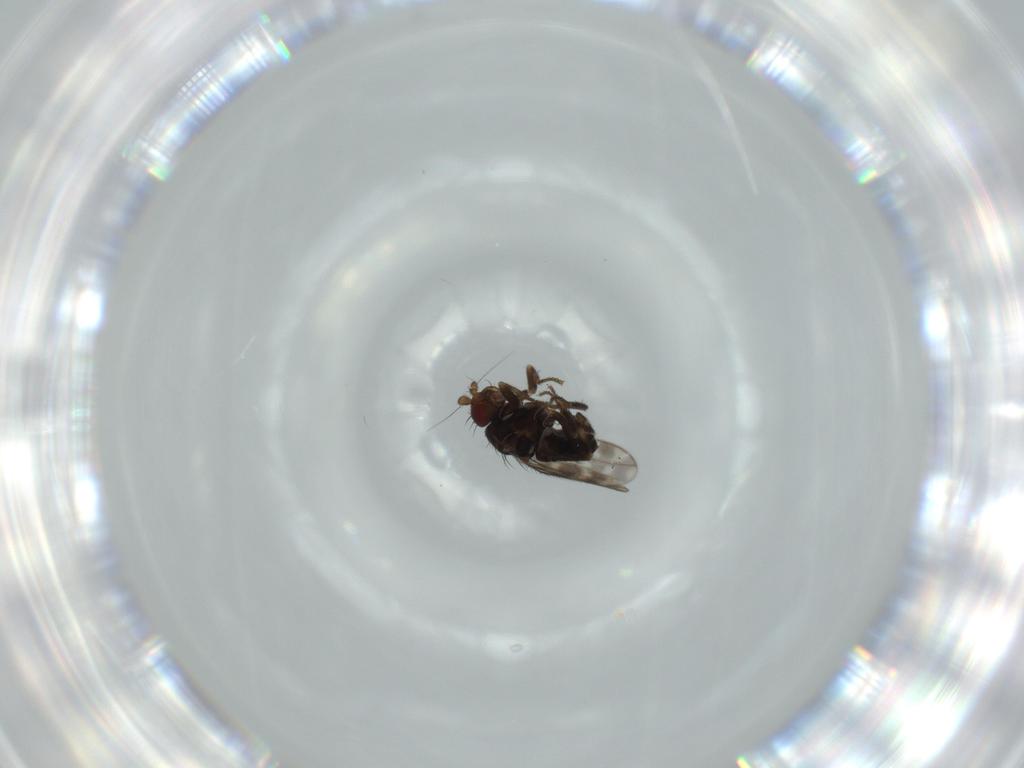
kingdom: Animalia
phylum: Arthropoda
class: Insecta
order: Diptera
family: Sphaeroceridae
